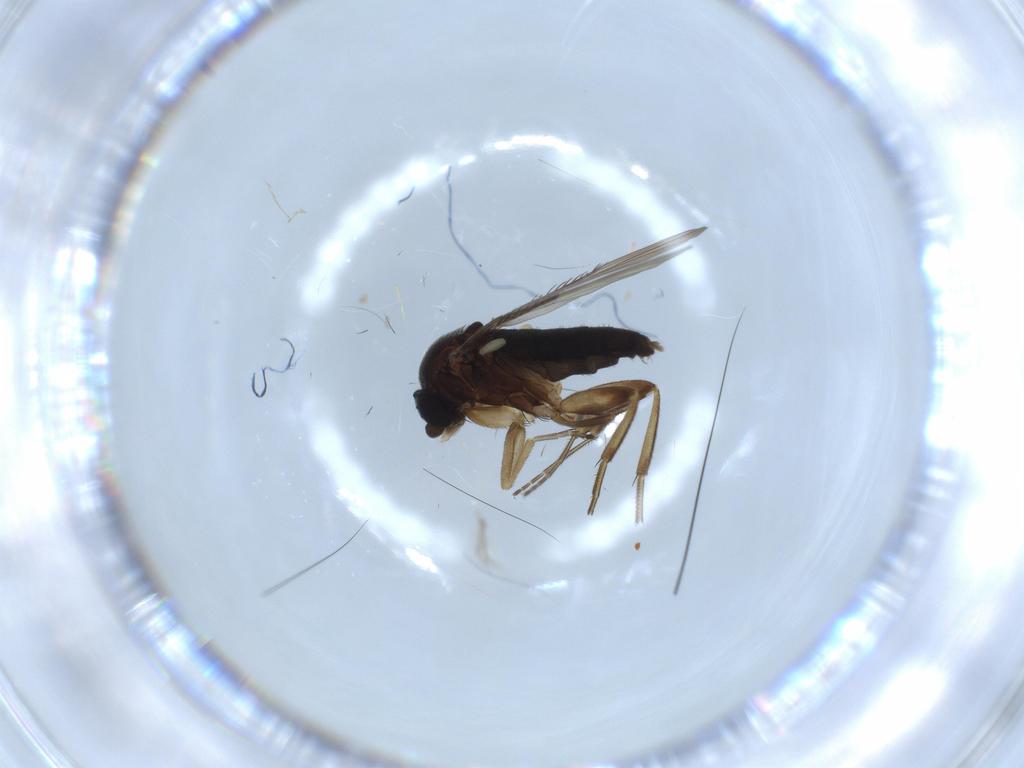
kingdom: Animalia
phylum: Arthropoda
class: Insecta
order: Diptera
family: Phoridae
